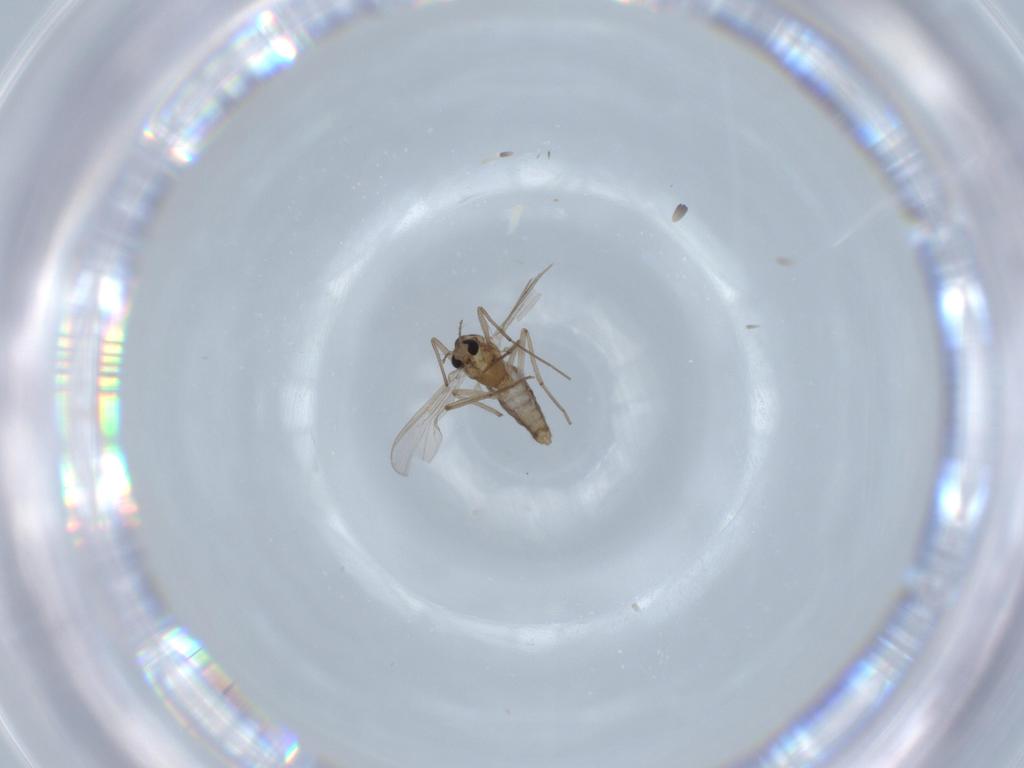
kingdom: Animalia
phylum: Arthropoda
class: Insecta
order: Diptera
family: Chironomidae
